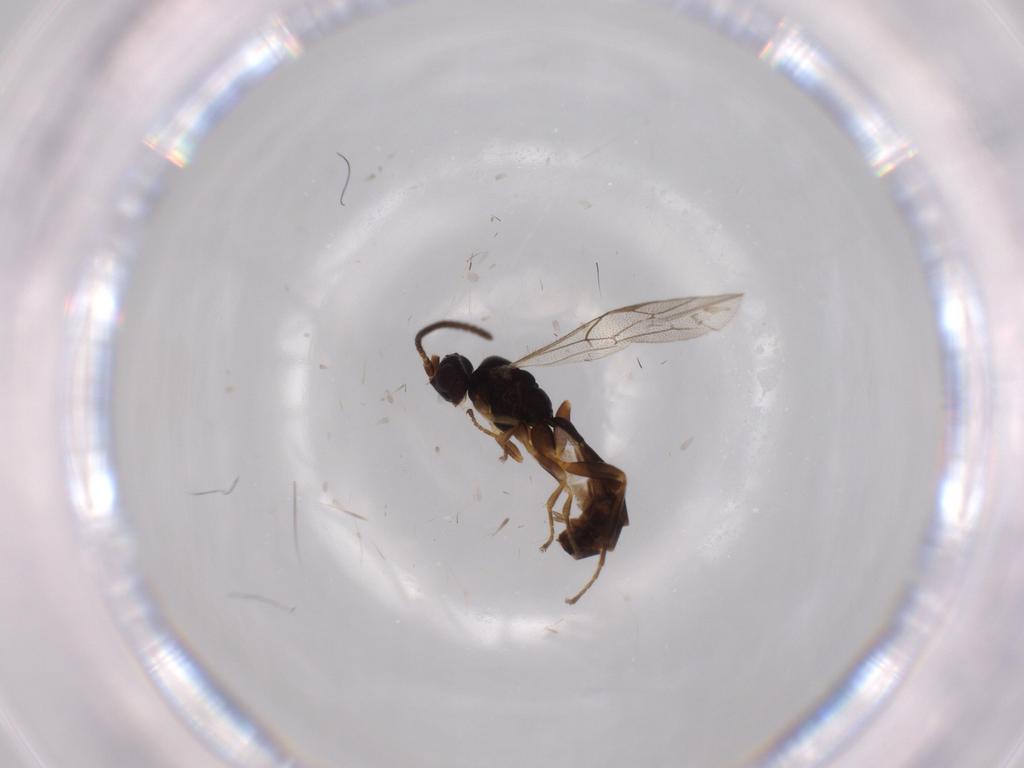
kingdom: Animalia
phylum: Arthropoda
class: Insecta
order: Hymenoptera
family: Ichneumonidae
